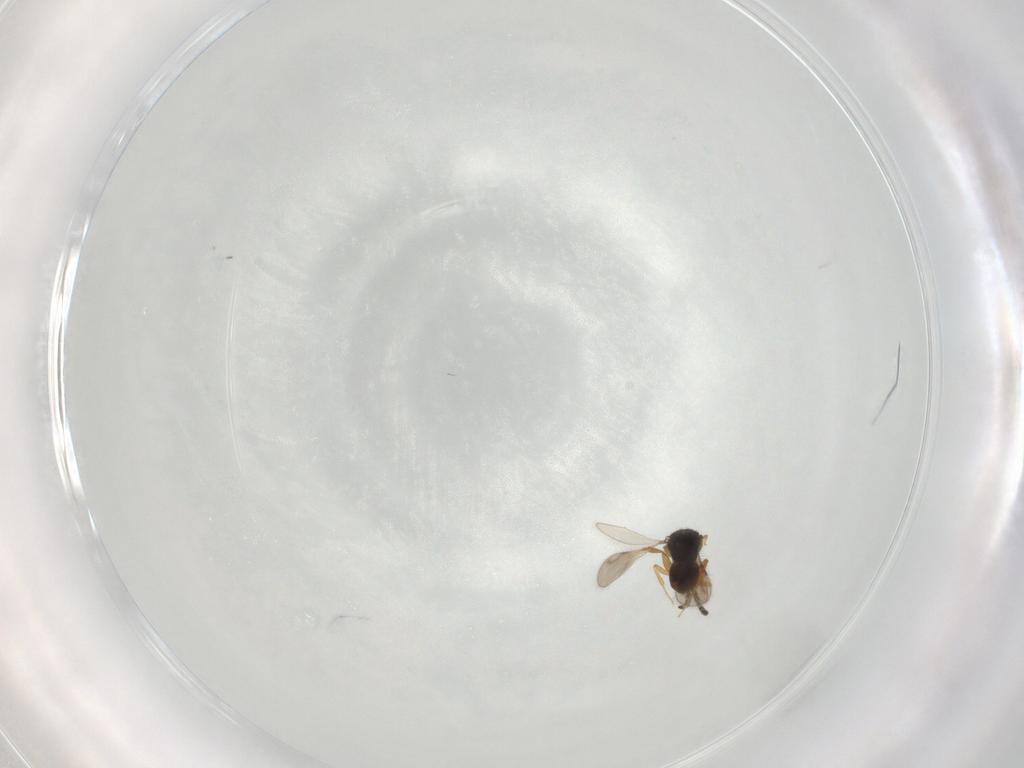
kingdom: Animalia
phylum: Arthropoda
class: Insecta
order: Hymenoptera
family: Ceraphronidae
